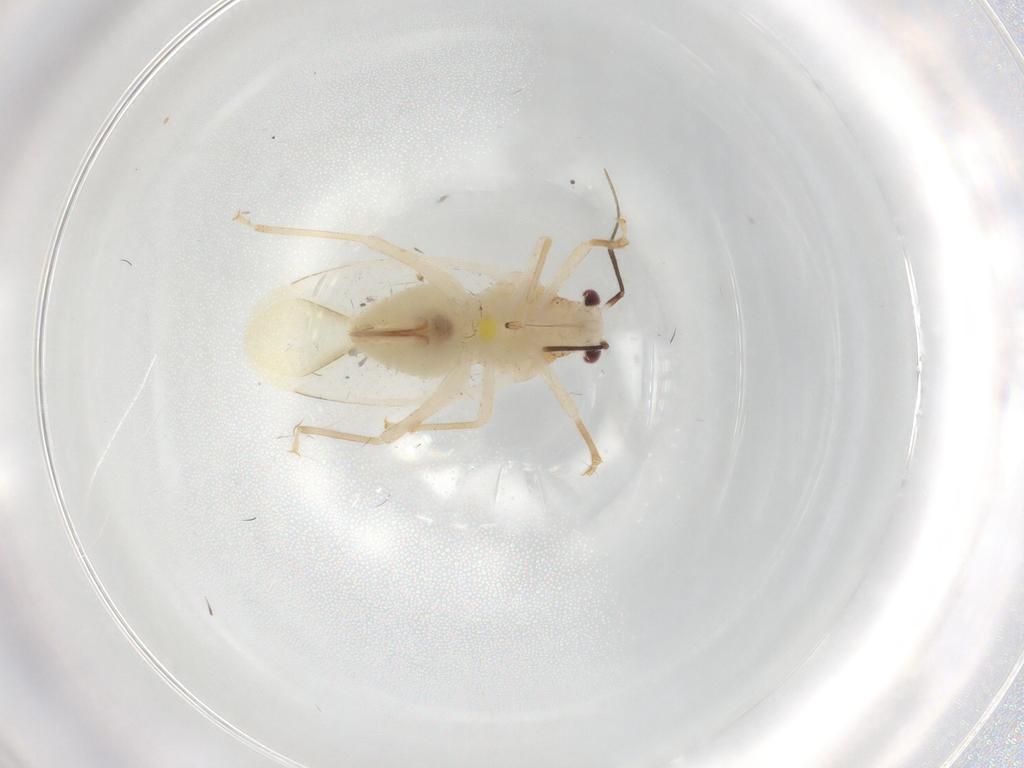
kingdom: Animalia
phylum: Arthropoda
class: Insecta
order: Hemiptera
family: Miridae
